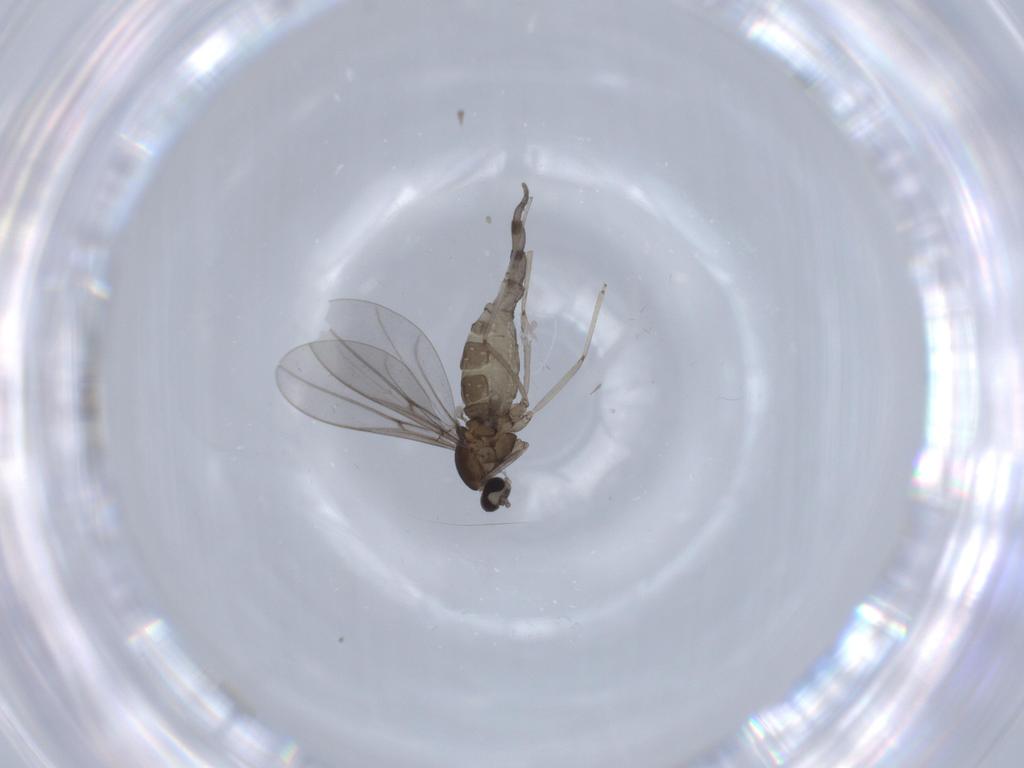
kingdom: Animalia
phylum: Arthropoda
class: Insecta
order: Diptera
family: Cecidomyiidae
